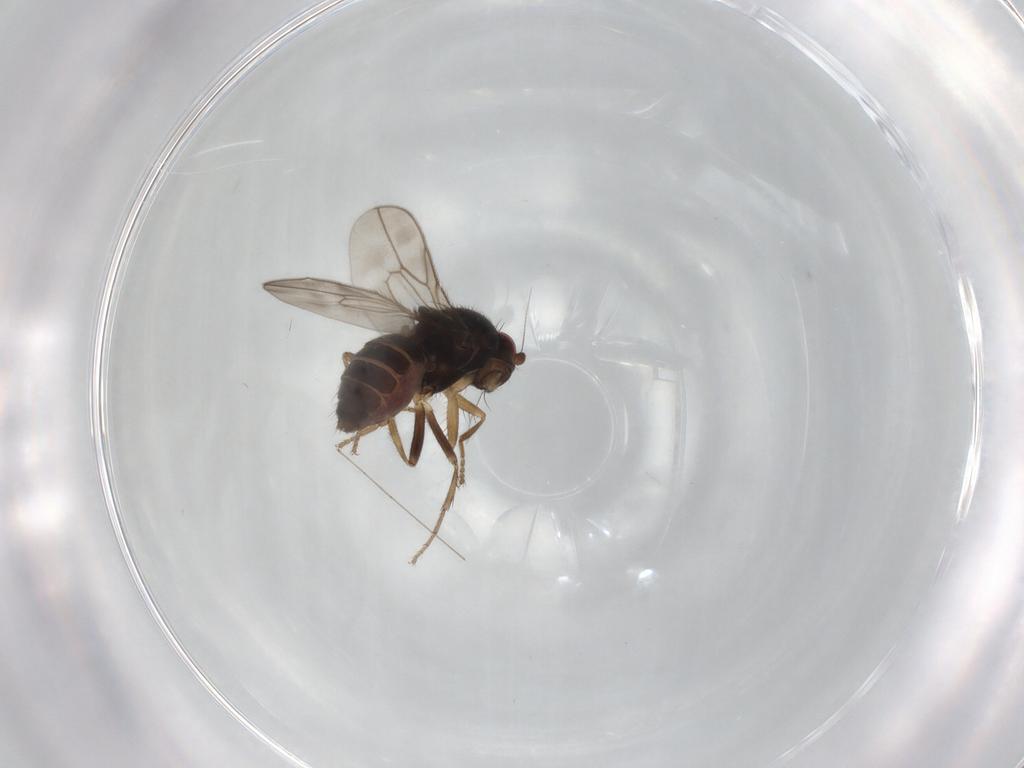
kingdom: Animalia
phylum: Arthropoda
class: Insecta
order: Diptera
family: Sphaeroceridae
